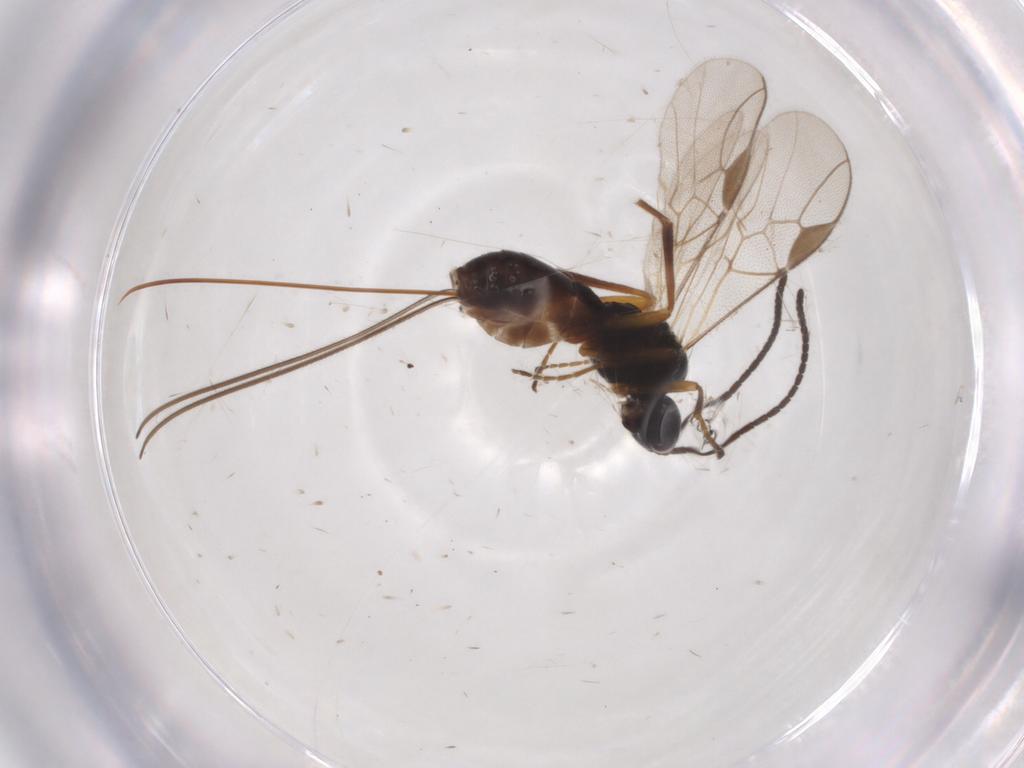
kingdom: Animalia
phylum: Arthropoda
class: Insecta
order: Hymenoptera
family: Braconidae
